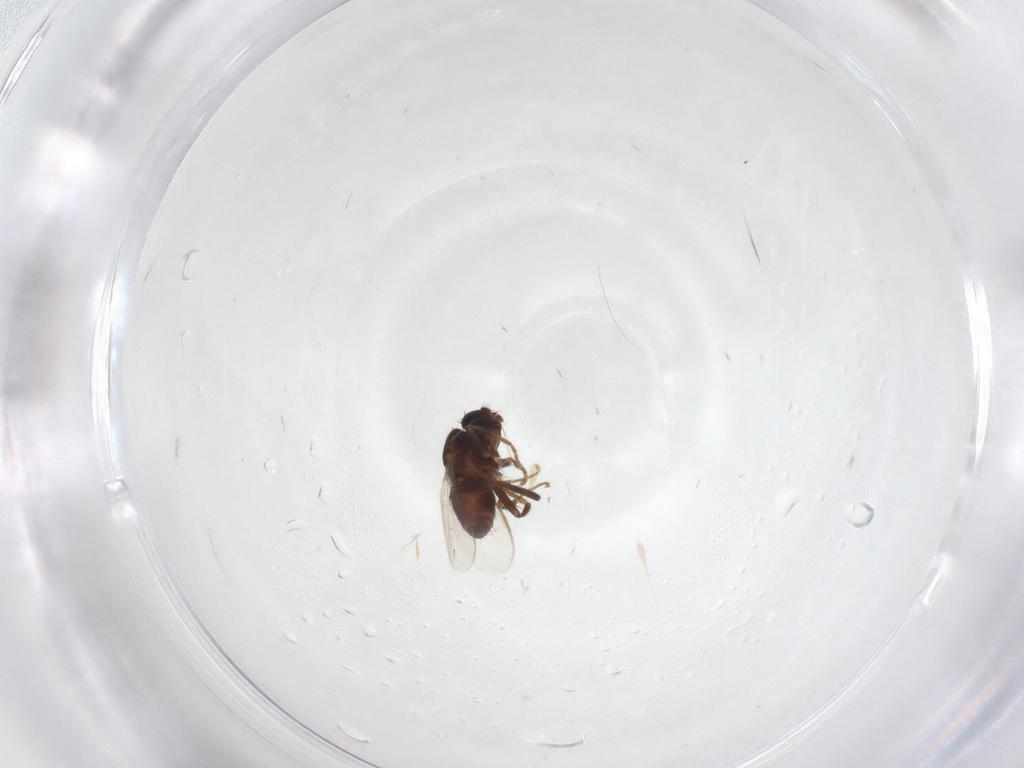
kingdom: Animalia
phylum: Arthropoda
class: Insecta
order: Diptera
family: Sphaeroceridae
